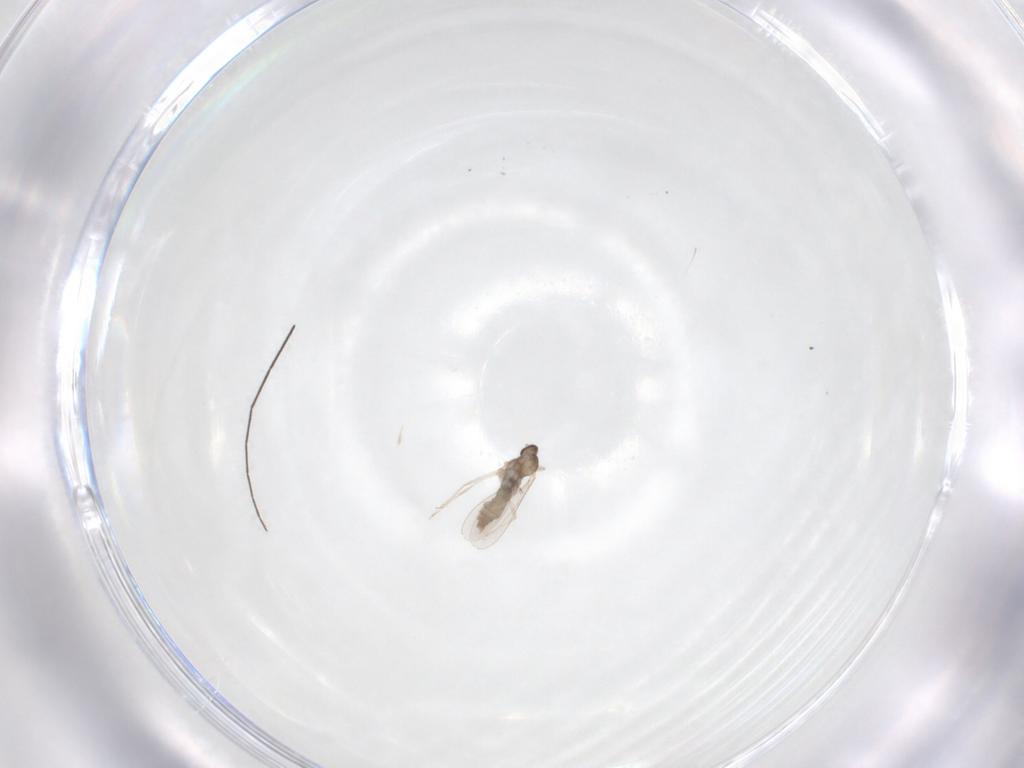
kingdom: Animalia
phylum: Arthropoda
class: Insecta
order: Diptera
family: Cecidomyiidae
